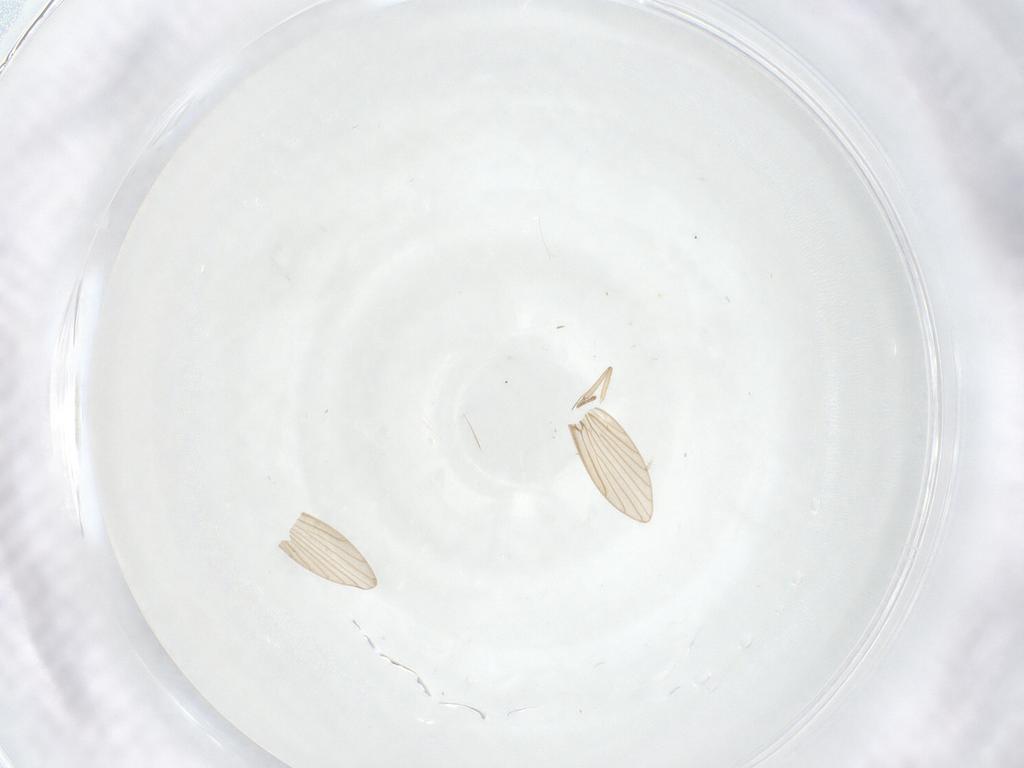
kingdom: Animalia
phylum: Arthropoda
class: Insecta
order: Diptera
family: Psychodidae
